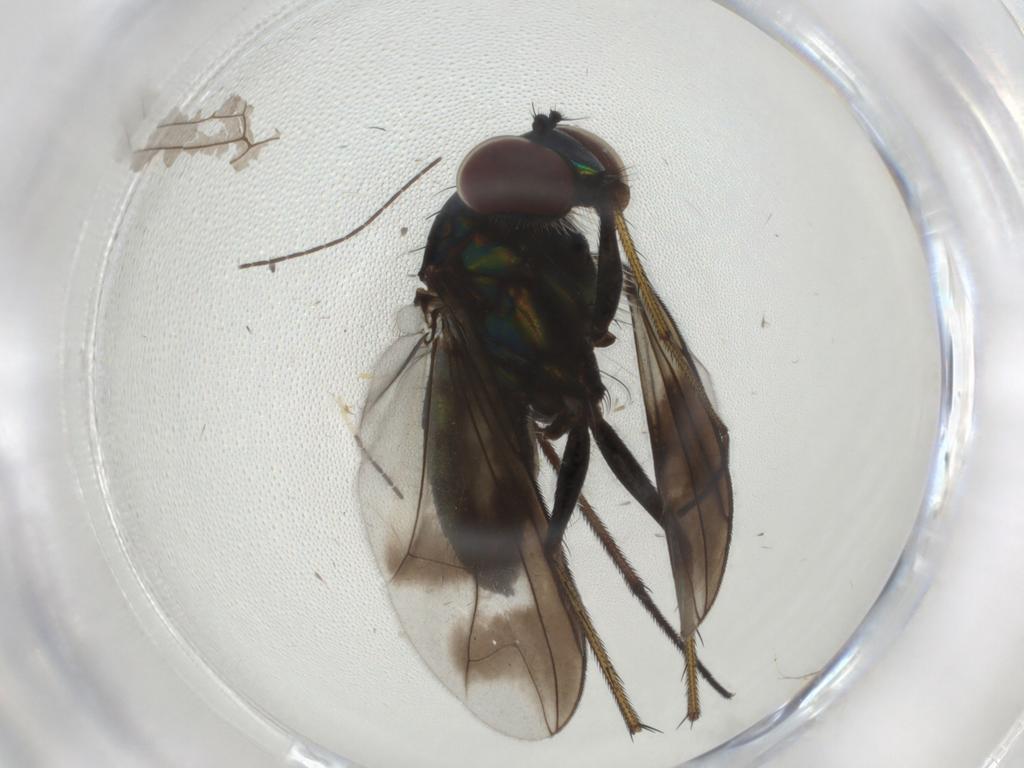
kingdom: Animalia
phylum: Arthropoda
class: Insecta
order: Diptera
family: Dolichopodidae
